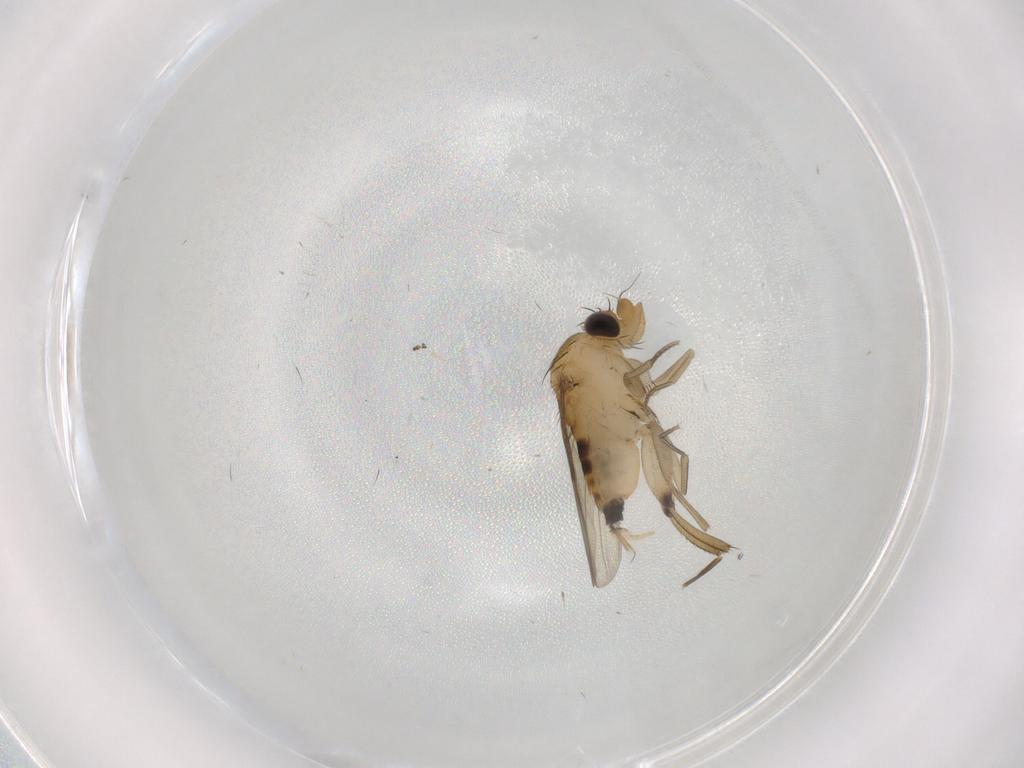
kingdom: Animalia
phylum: Arthropoda
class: Insecta
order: Diptera
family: Phoridae
